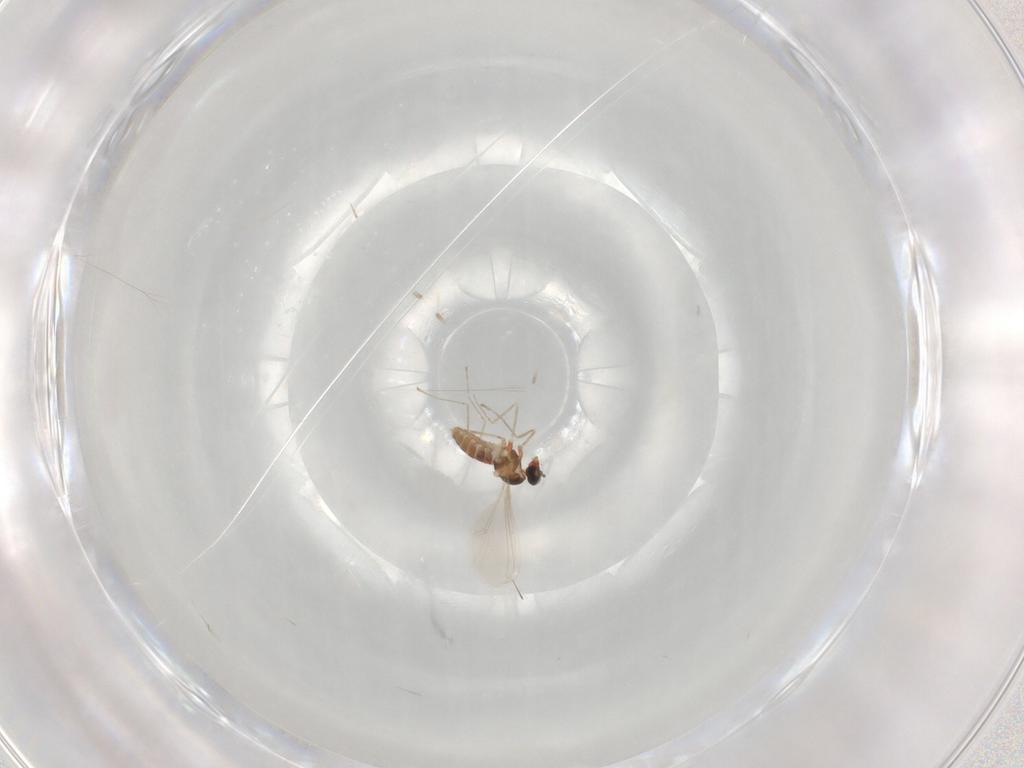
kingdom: Animalia
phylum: Arthropoda
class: Insecta
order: Diptera
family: Cecidomyiidae
